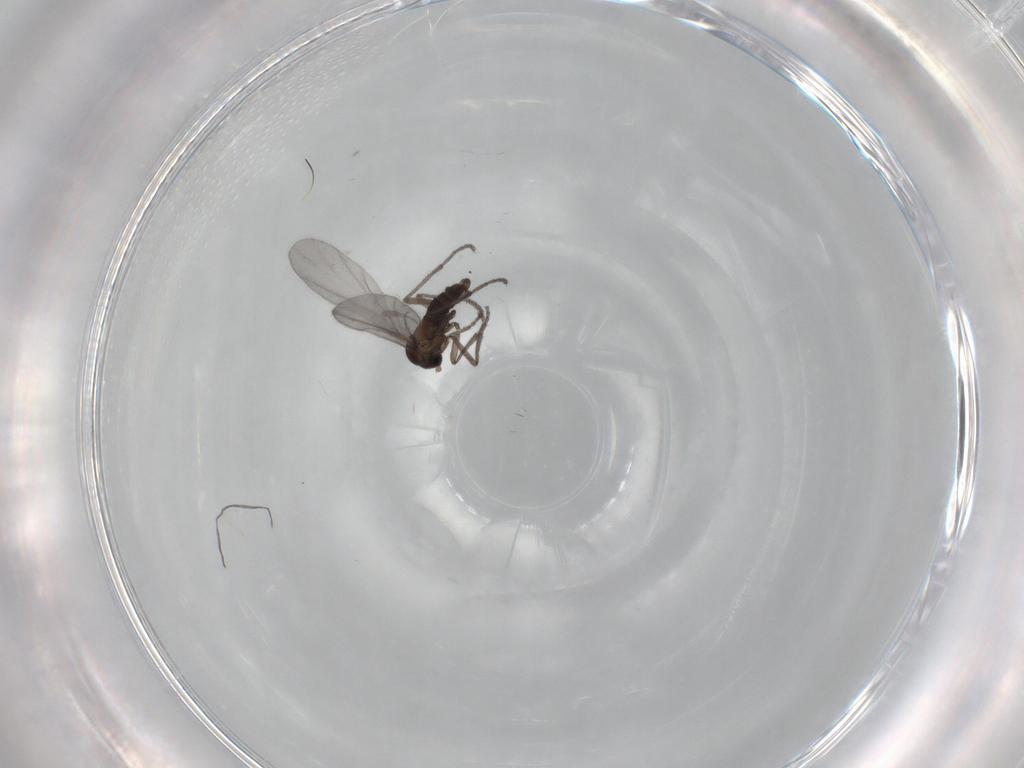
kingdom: Animalia
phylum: Arthropoda
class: Insecta
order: Diptera
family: Sciaridae
